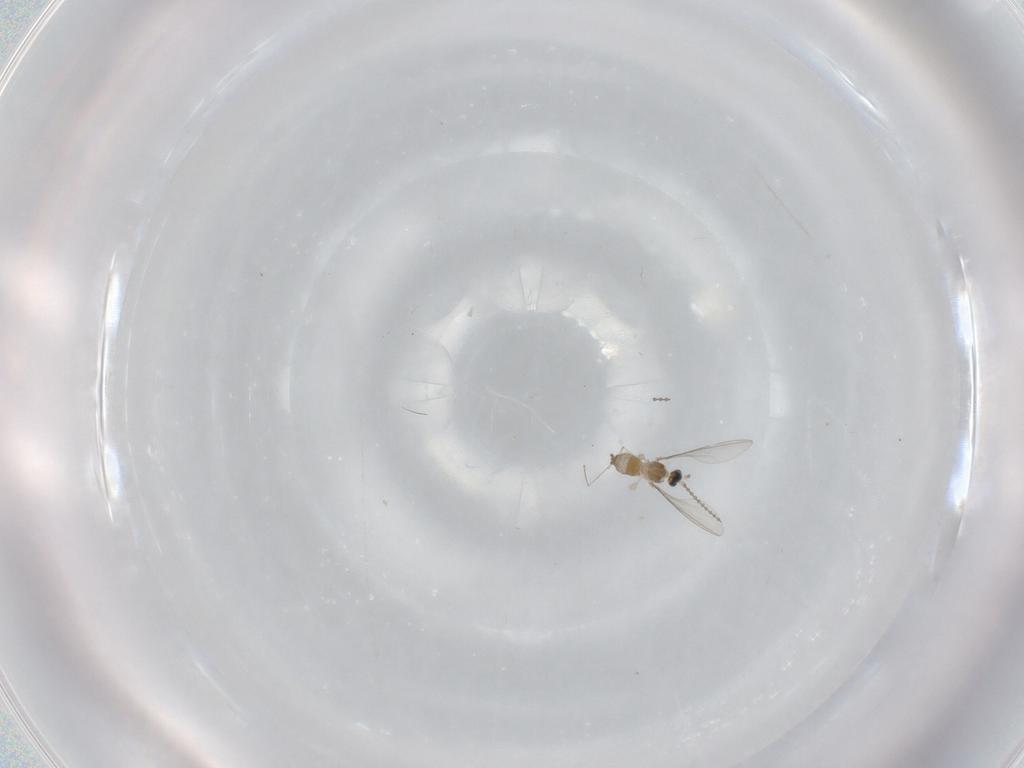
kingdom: Animalia
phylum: Arthropoda
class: Insecta
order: Diptera
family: Cecidomyiidae
